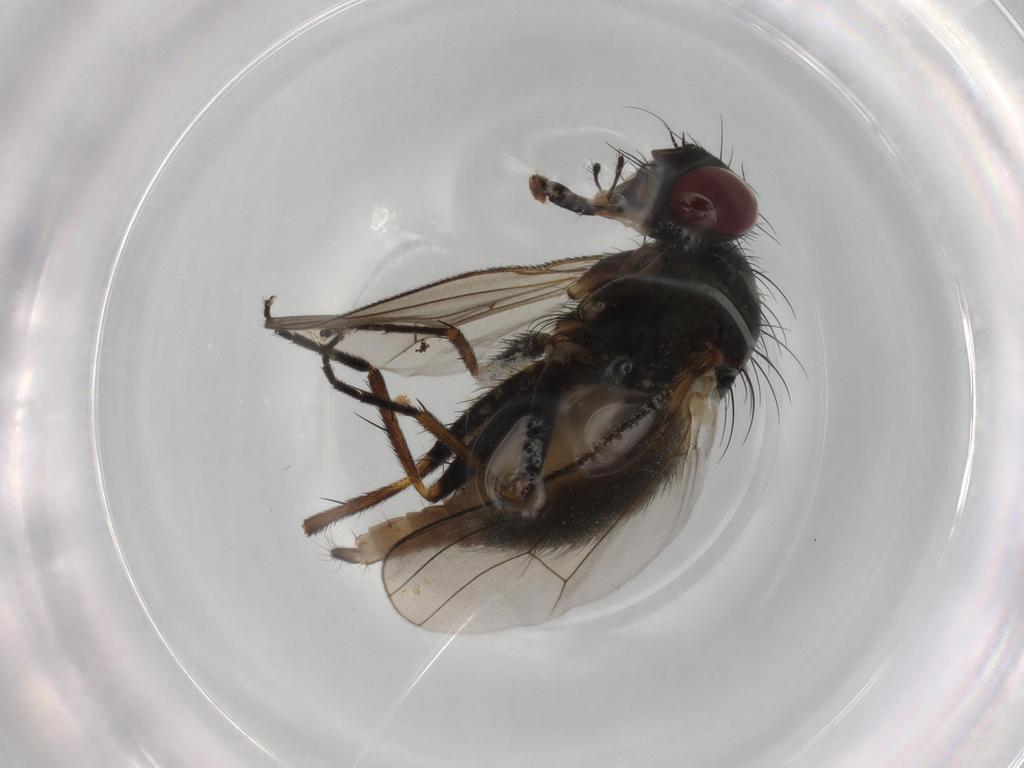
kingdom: Animalia
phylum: Arthropoda
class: Insecta
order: Diptera
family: Muscidae
